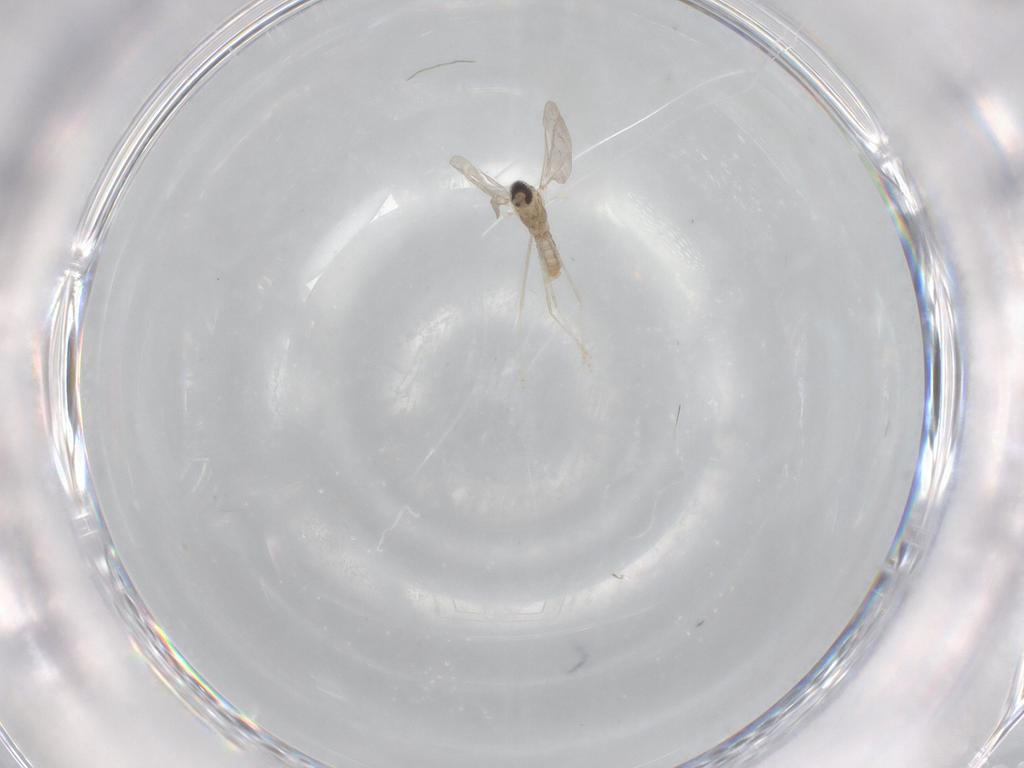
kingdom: Animalia
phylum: Arthropoda
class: Insecta
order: Diptera
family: Cecidomyiidae
